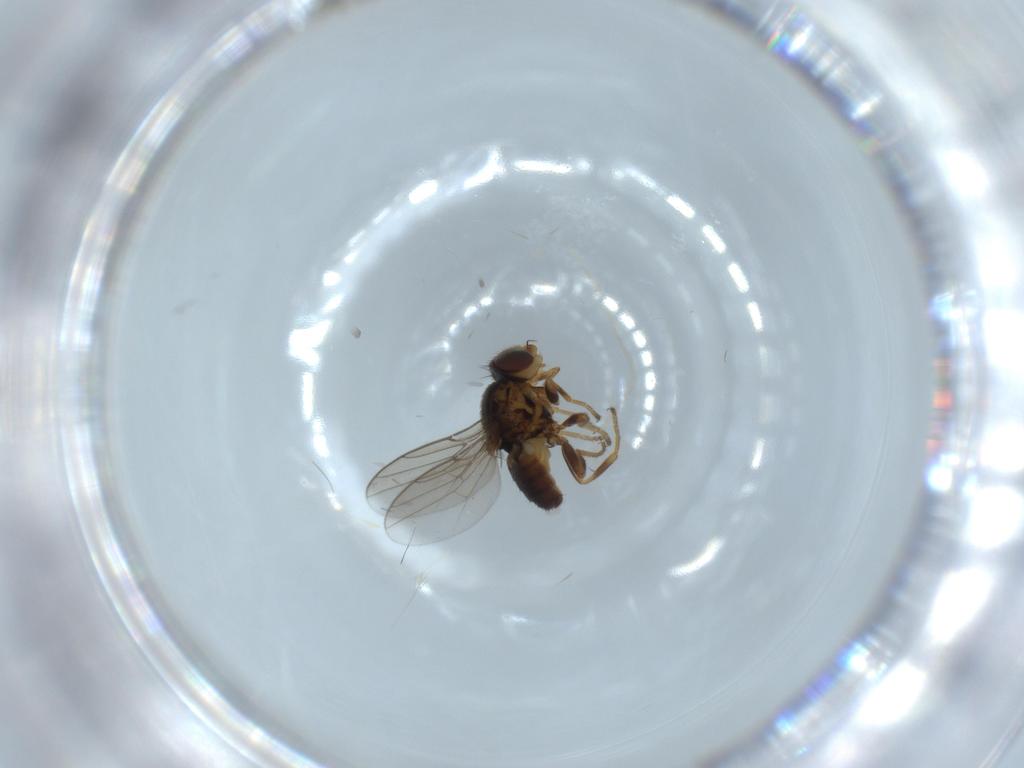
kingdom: Animalia
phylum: Arthropoda
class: Insecta
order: Diptera
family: Chloropidae
